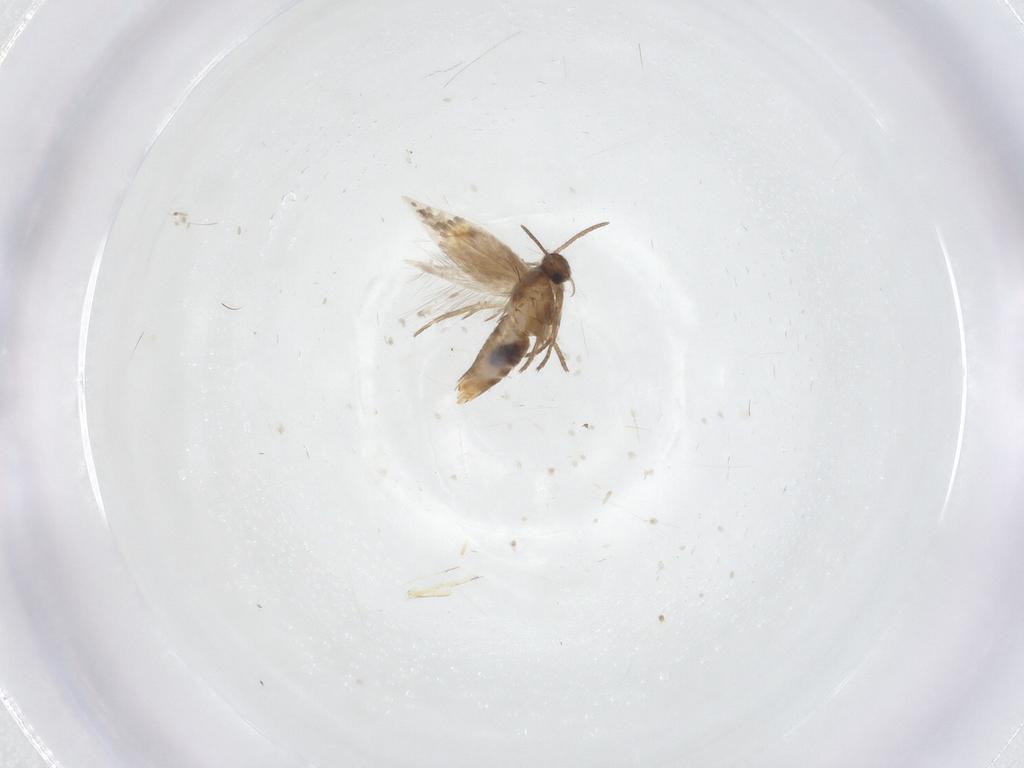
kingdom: Animalia
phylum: Arthropoda
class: Insecta
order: Lepidoptera
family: Heliozelidae
